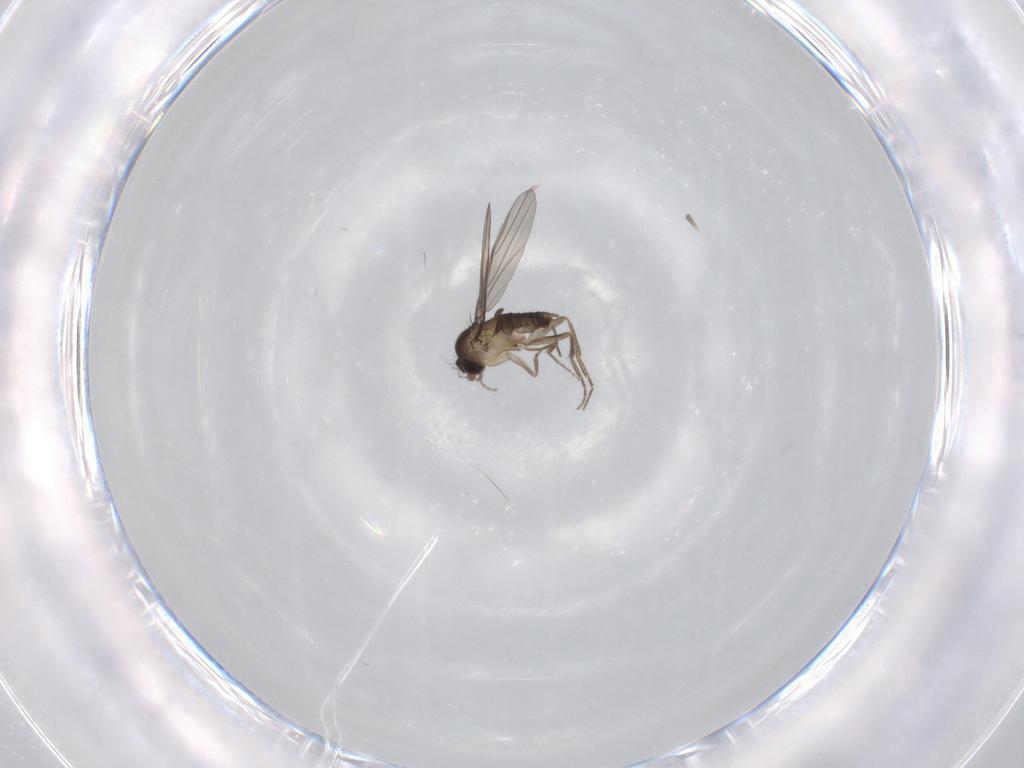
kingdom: Animalia
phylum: Arthropoda
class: Insecta
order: Diptera
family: Phoridae
